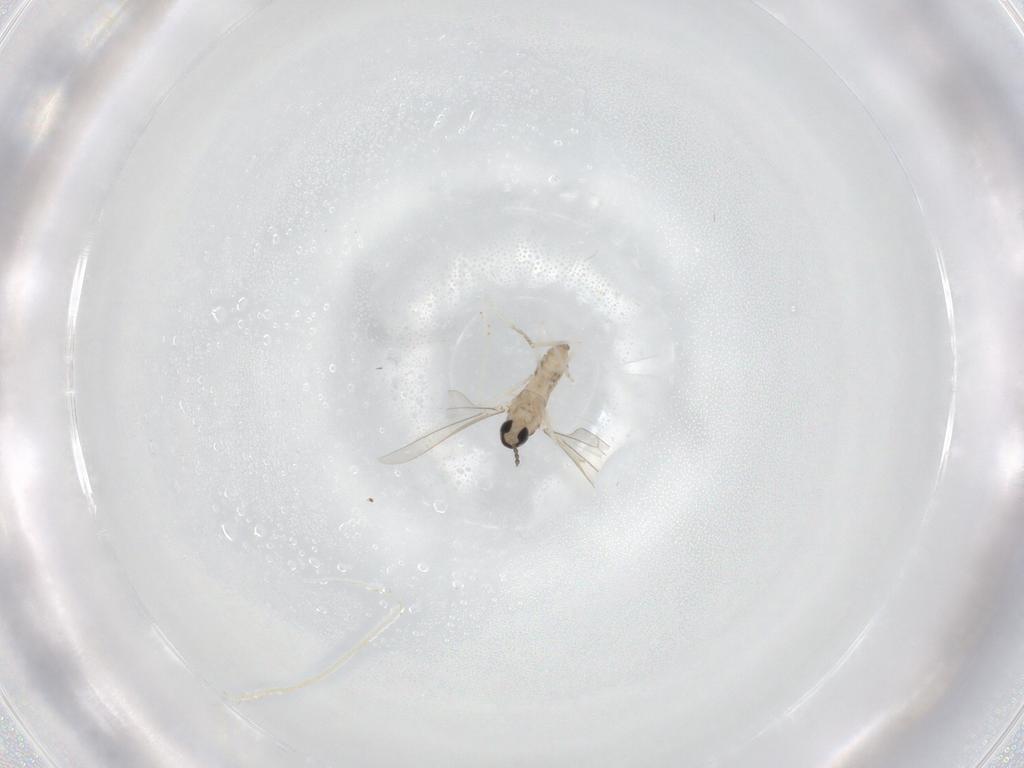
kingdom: Animalia
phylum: Arthropoda
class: Insecta
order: Diptera
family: Cecidomyiidae
